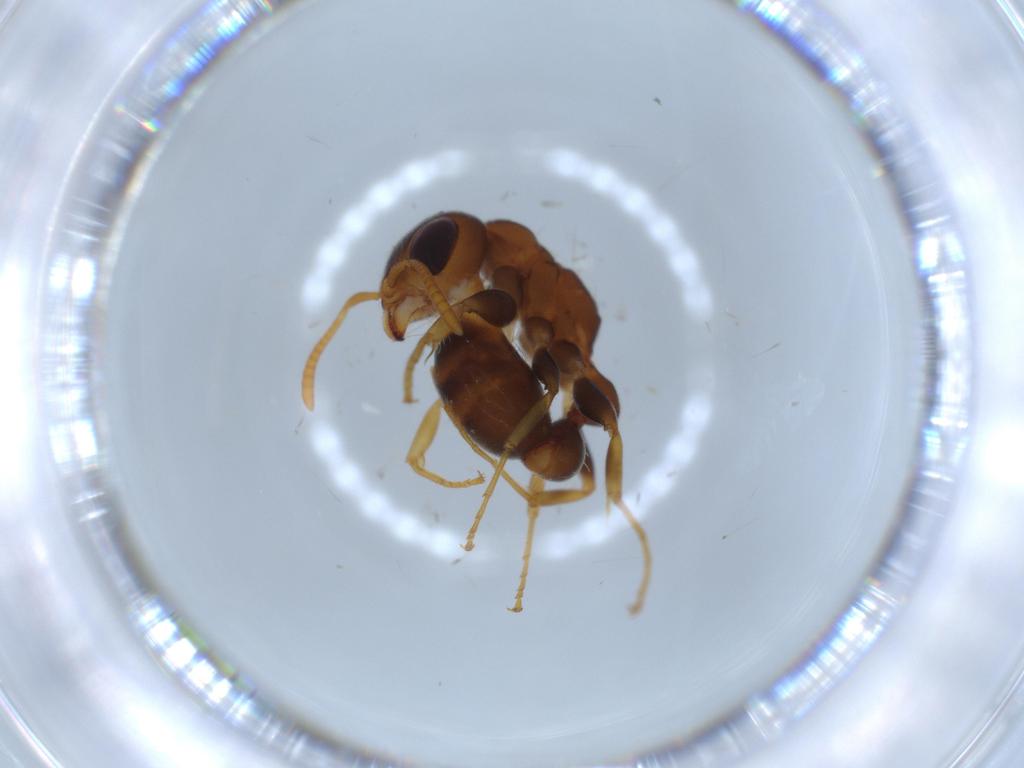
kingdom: Animalia
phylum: Arthropoda
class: Insecta
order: Hymenoptera
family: Formicidae
